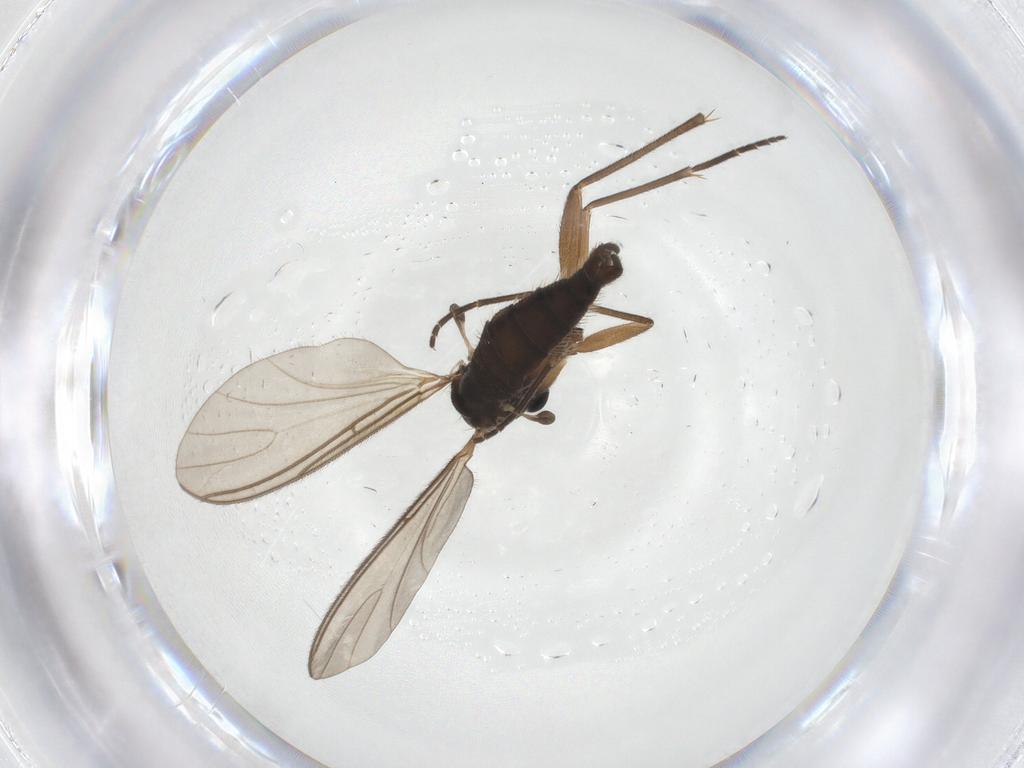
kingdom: Animalia
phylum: Arthropoda
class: Insecta
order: Diptera
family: Sciaridae
